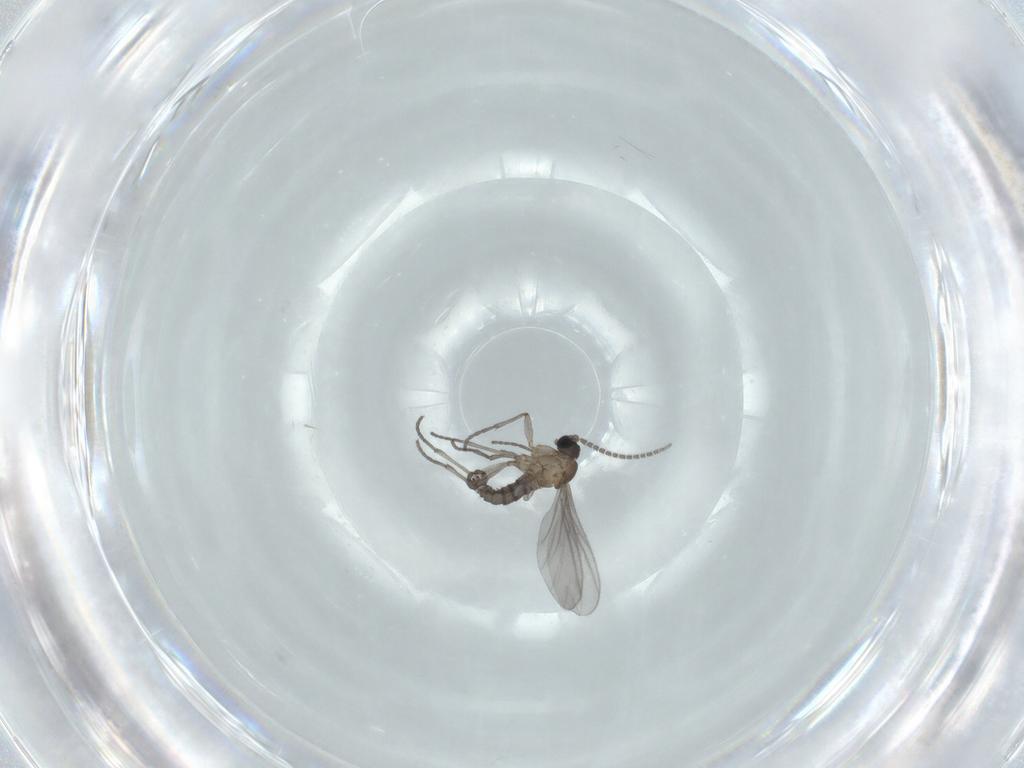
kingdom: Animalia
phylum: Arthropoda
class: Insecta
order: Diptera
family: Sciaridae
